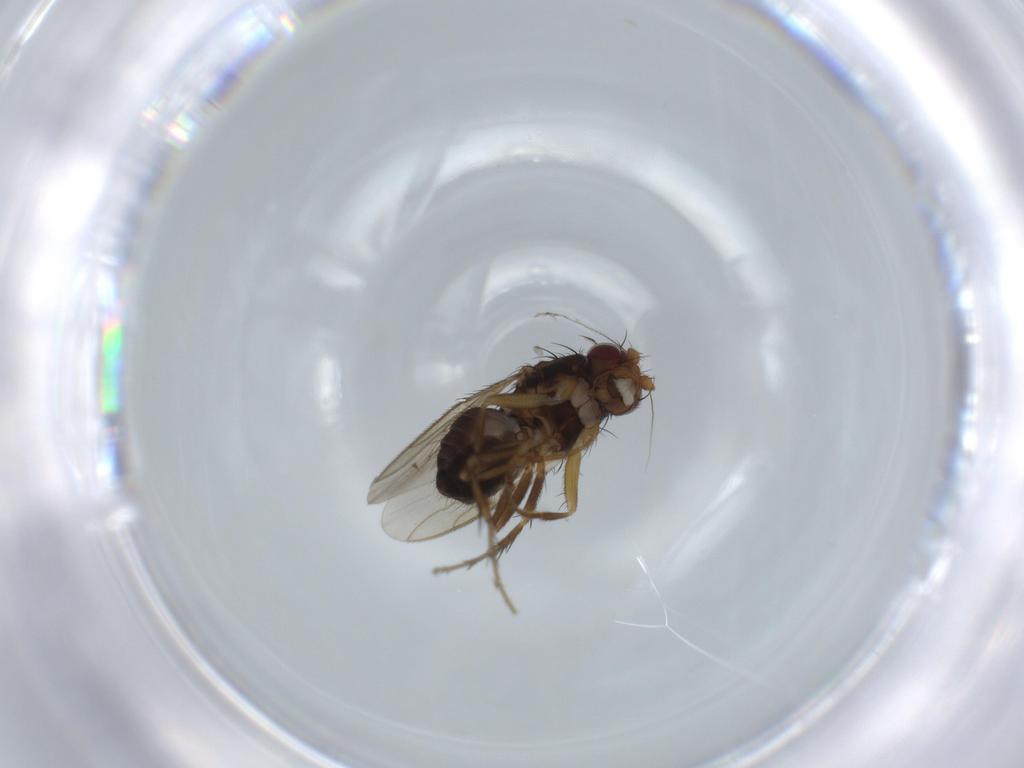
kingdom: Animalia
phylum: Arthropoda
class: Insecta
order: Diptera
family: Sphaeroceridae
